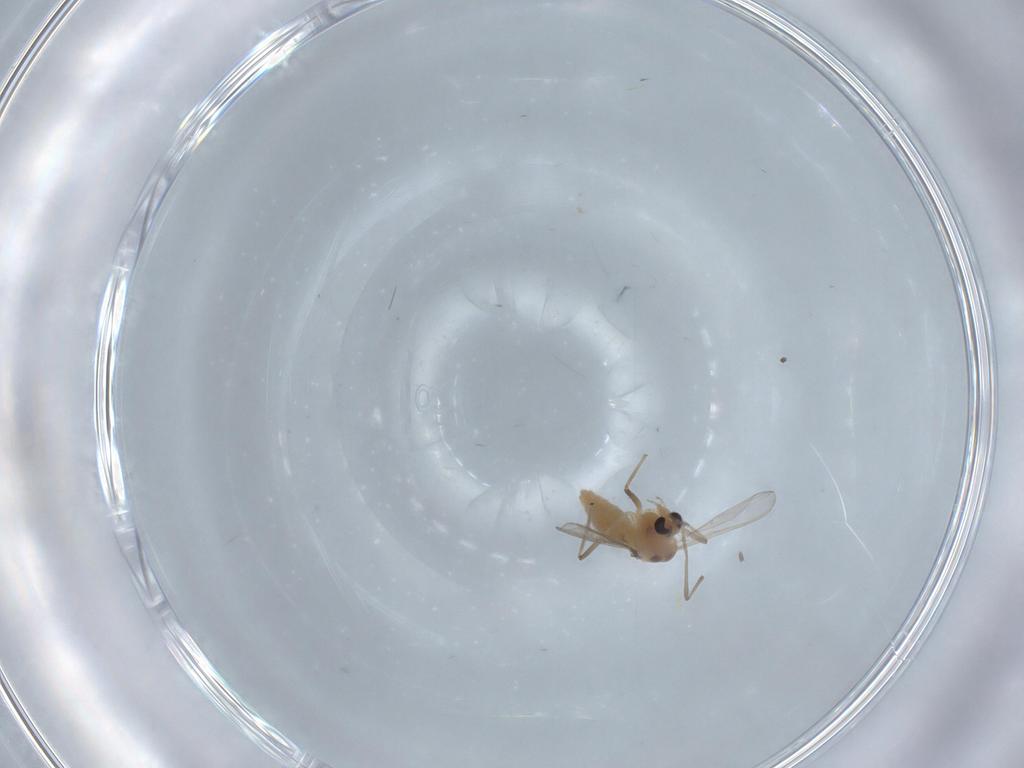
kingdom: Animalia
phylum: Arthropoda
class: Insecta
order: Diptera
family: Chironomidae
